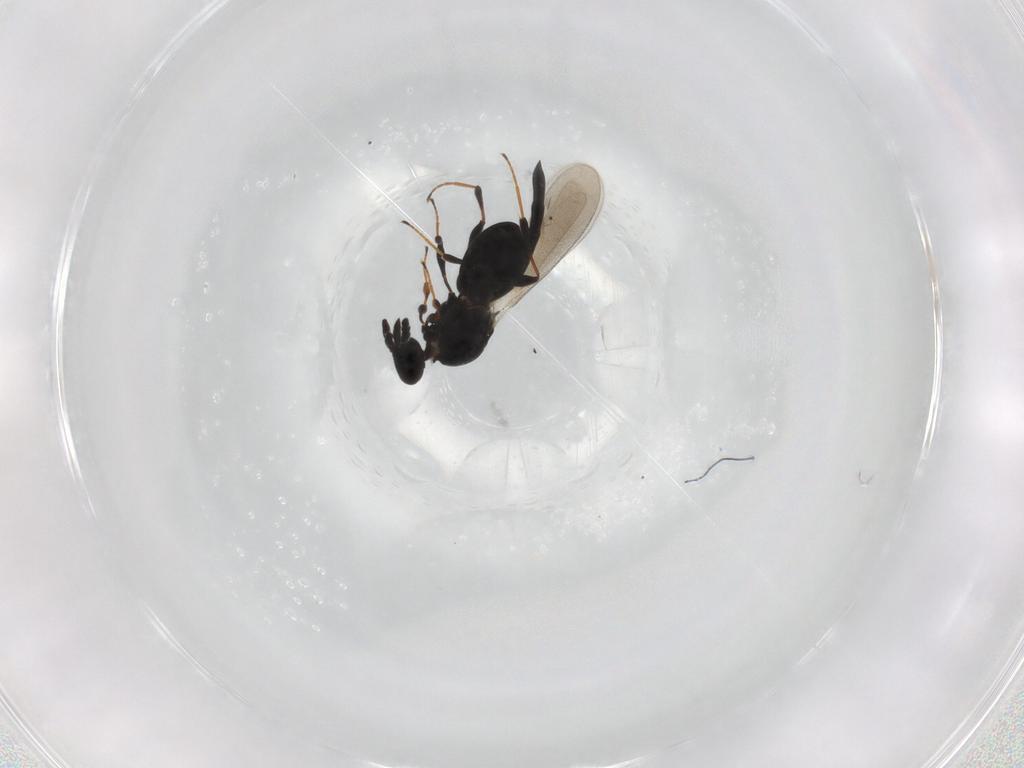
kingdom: Animalia
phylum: Arthropoda
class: Insecta
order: Hymenoptera
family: Platygastridae
